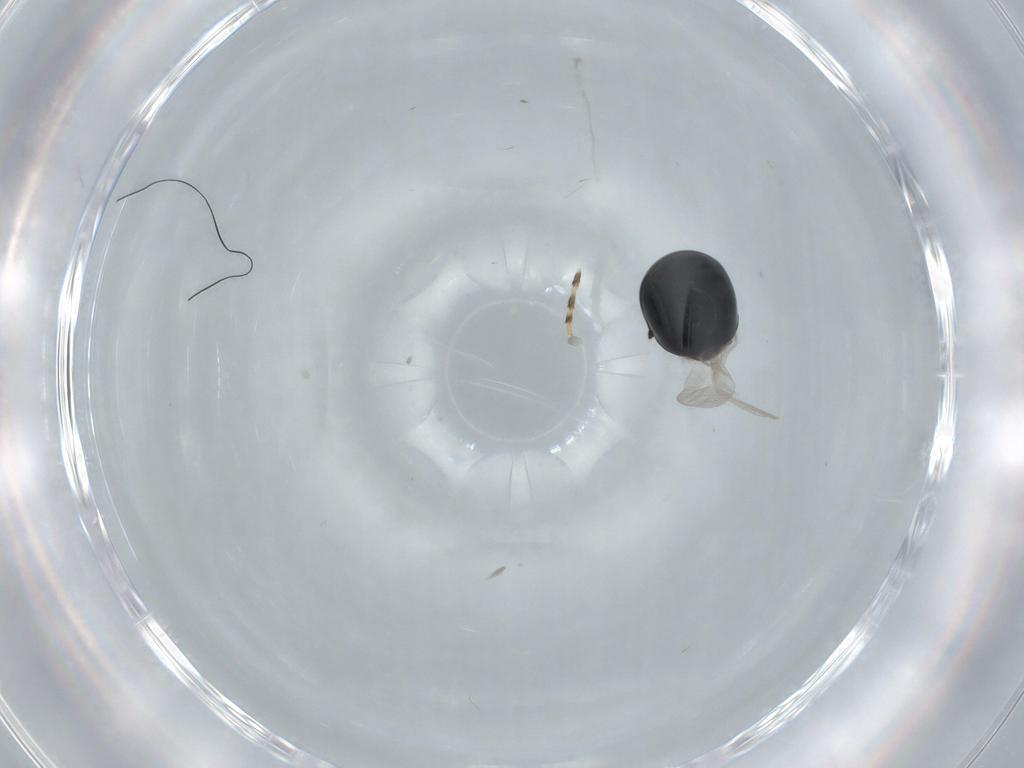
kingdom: Animalia
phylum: Arthropoda
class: Insecta
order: Coleoptera
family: Cybocephalidae
